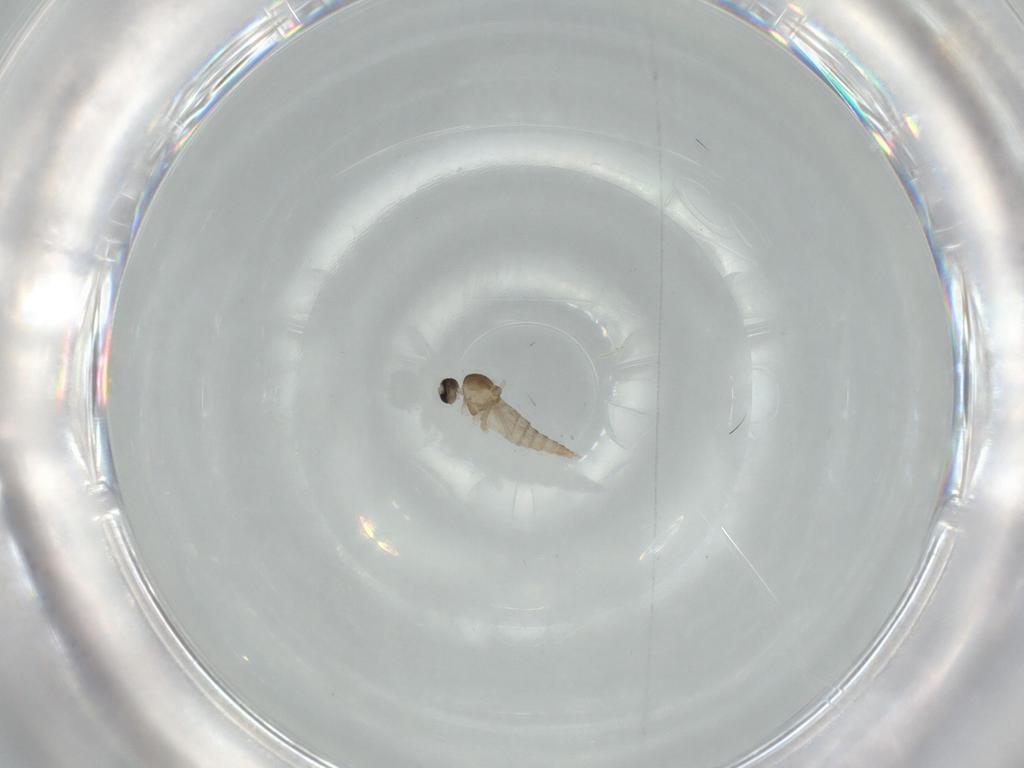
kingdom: Animalia
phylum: Arthropoda
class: Insecta
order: Diptera
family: Cecidomyiidae
